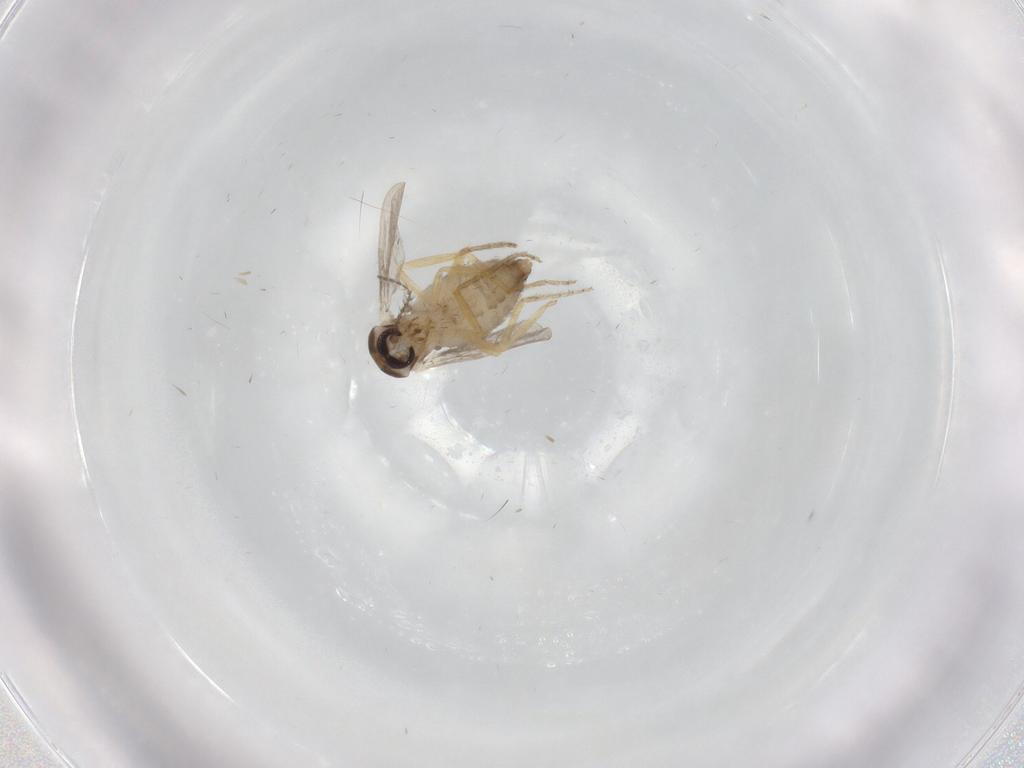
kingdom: Animalia
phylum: Arthropoda
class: Insecta
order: Diptera
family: Ceratopogonidae
